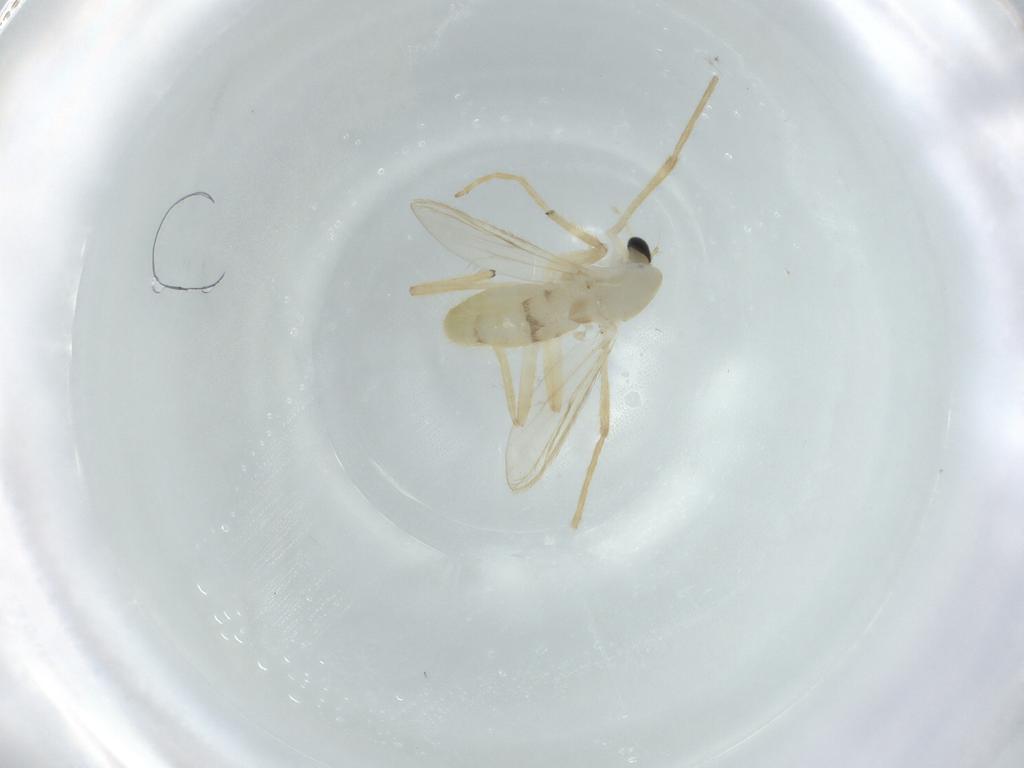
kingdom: Animalia
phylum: Arthropoda
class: Insecta
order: Diptera
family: Chironomidae
